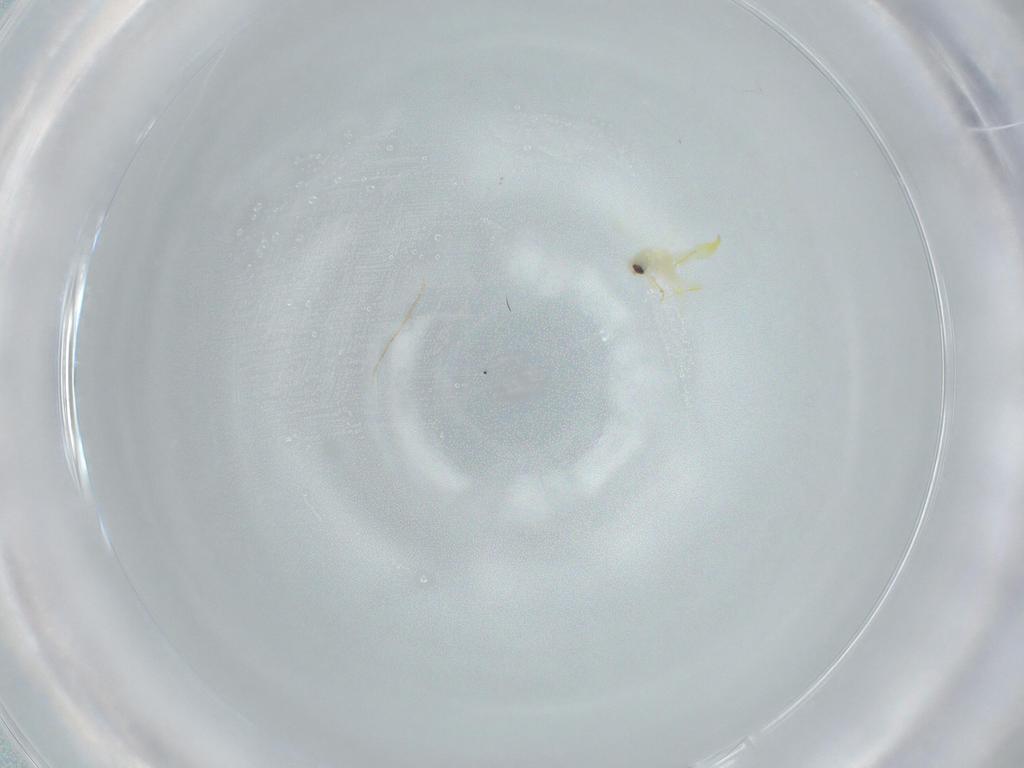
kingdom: Animalia
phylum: Arthropoda
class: Insecta
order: Hemiptera
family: Aleyrodidae
